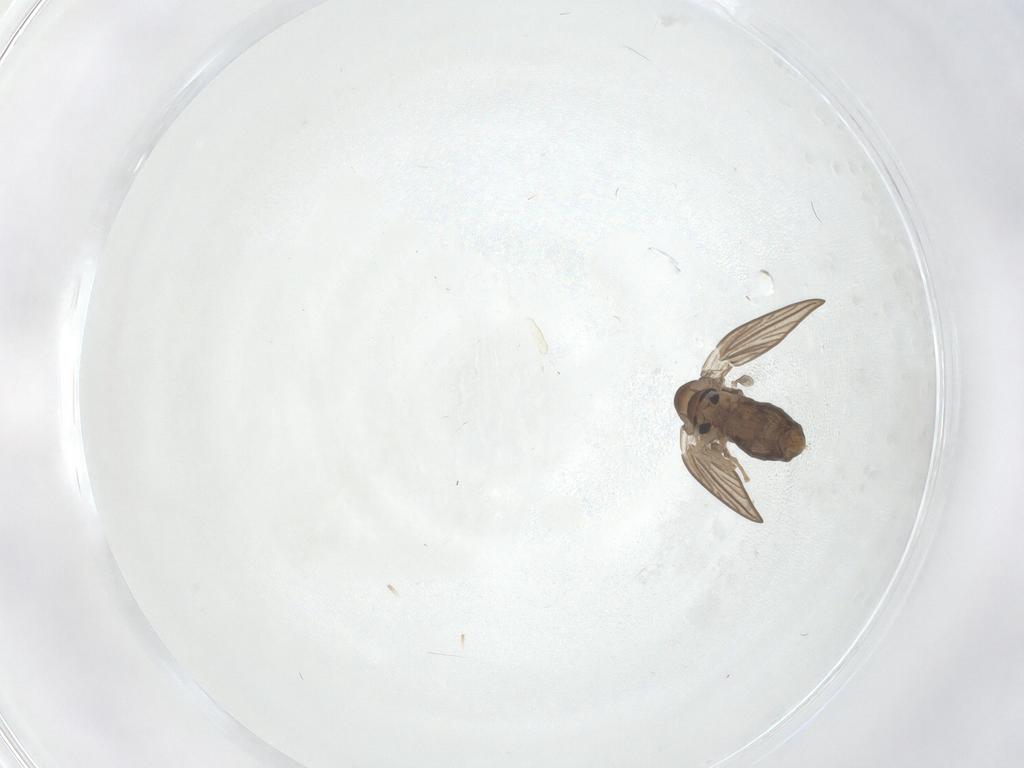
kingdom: Animalia
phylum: Arthropoda
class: Insecta
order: Diptera
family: Psychodidae
